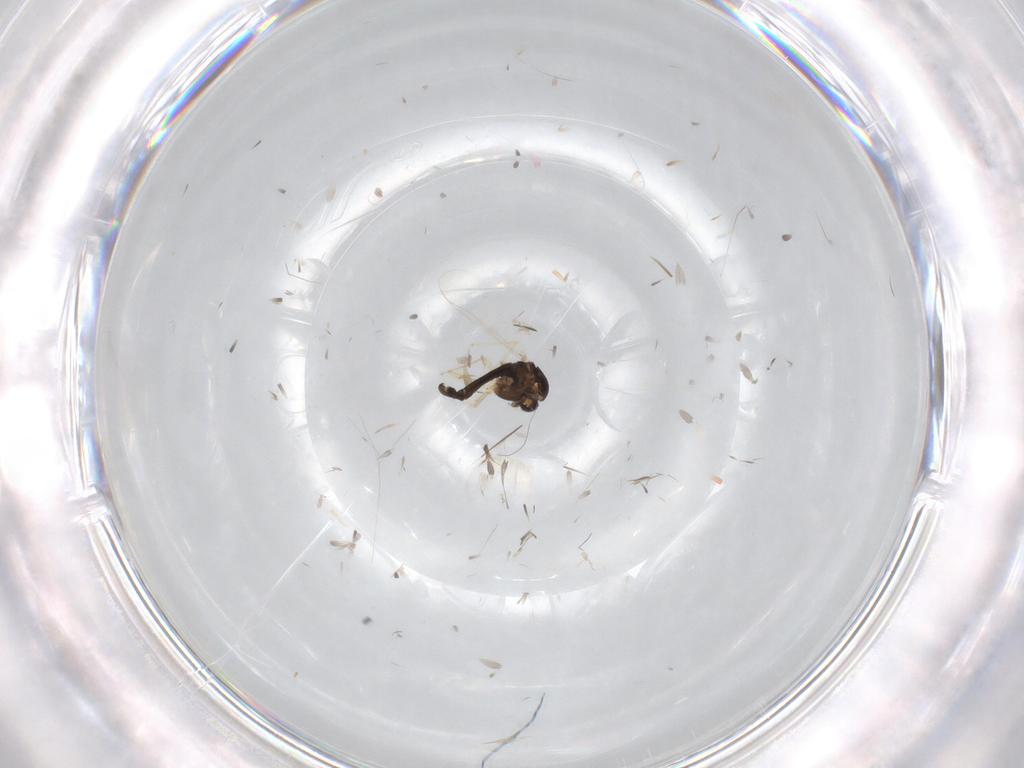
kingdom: Animalia
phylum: Arthropoda
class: Insecta
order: Diptera
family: Chironomidae
